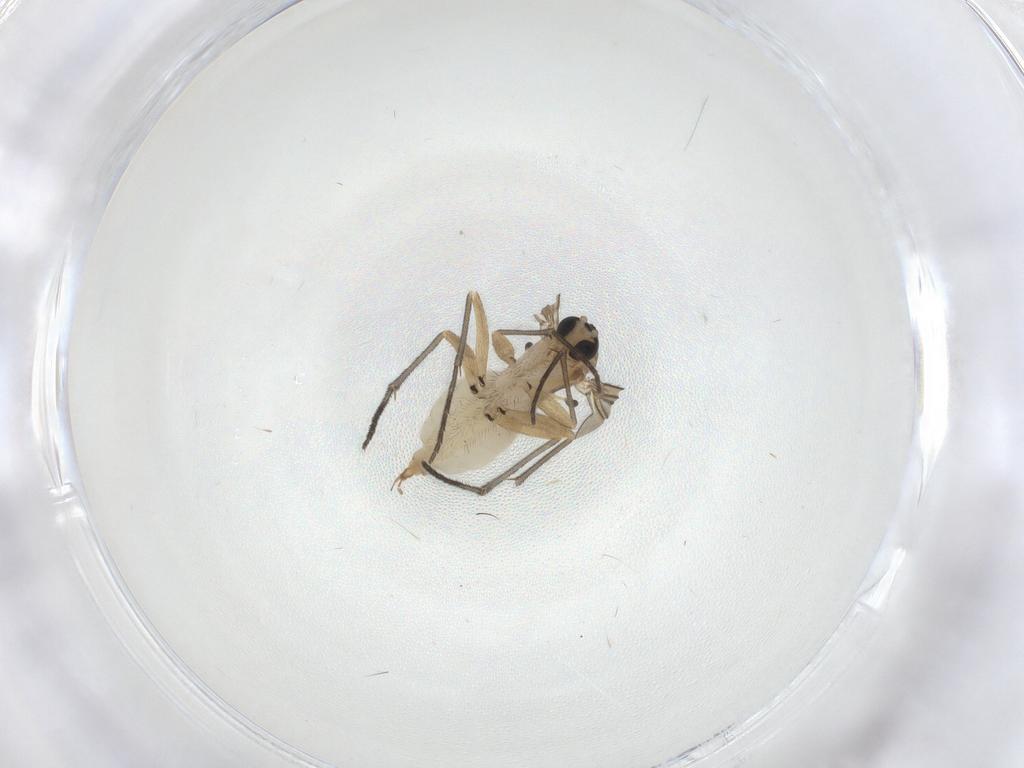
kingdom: Animalia
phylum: Arthropoda
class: Insecta
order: Diptera
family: Sciaridae
